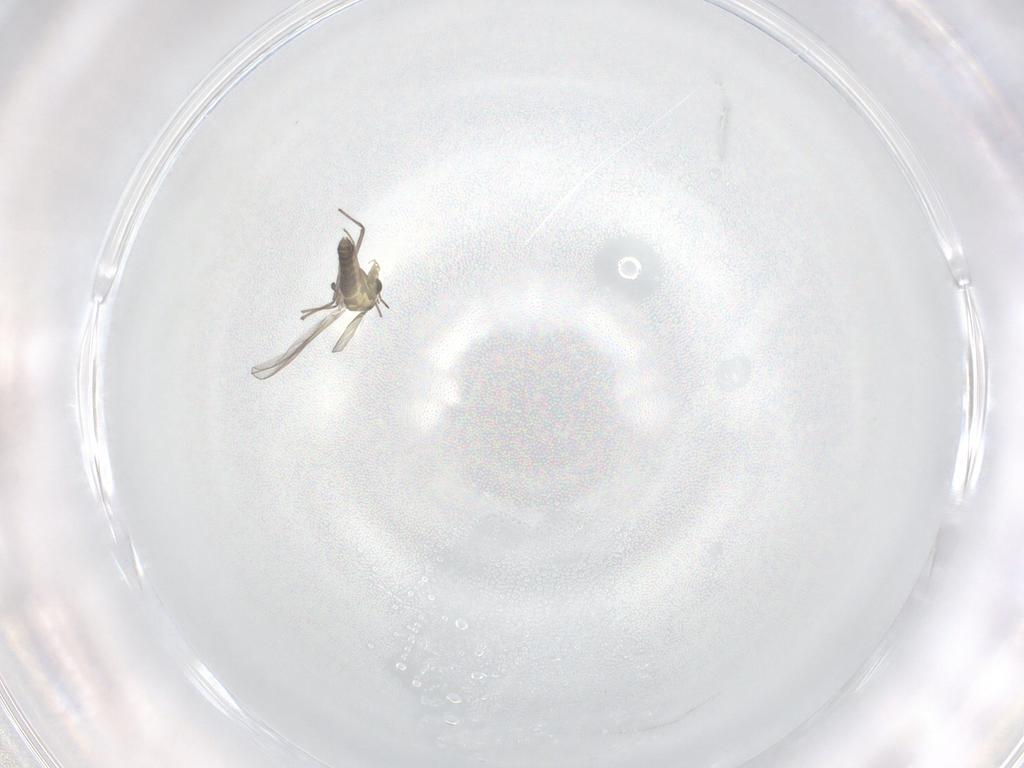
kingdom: Animalia
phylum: Arthropoda
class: Insecta
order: Diptera
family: Chironomidae
